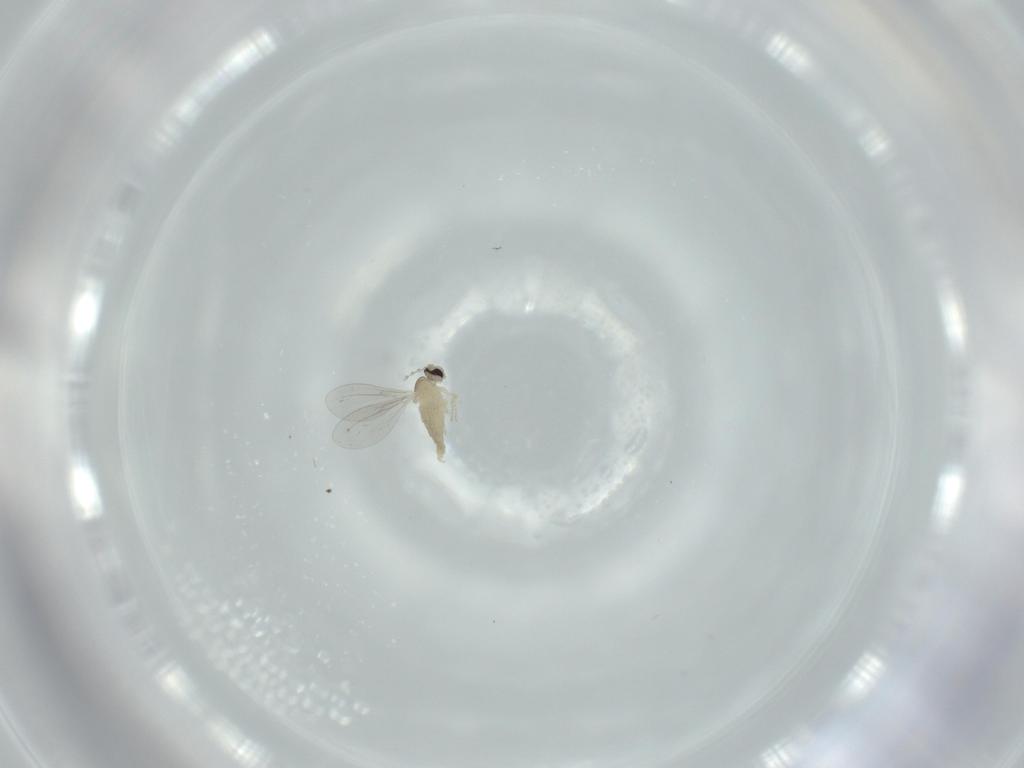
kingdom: Animalia
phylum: Arthropoda
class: Insecta
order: Diptera
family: Cecidomyiidae
